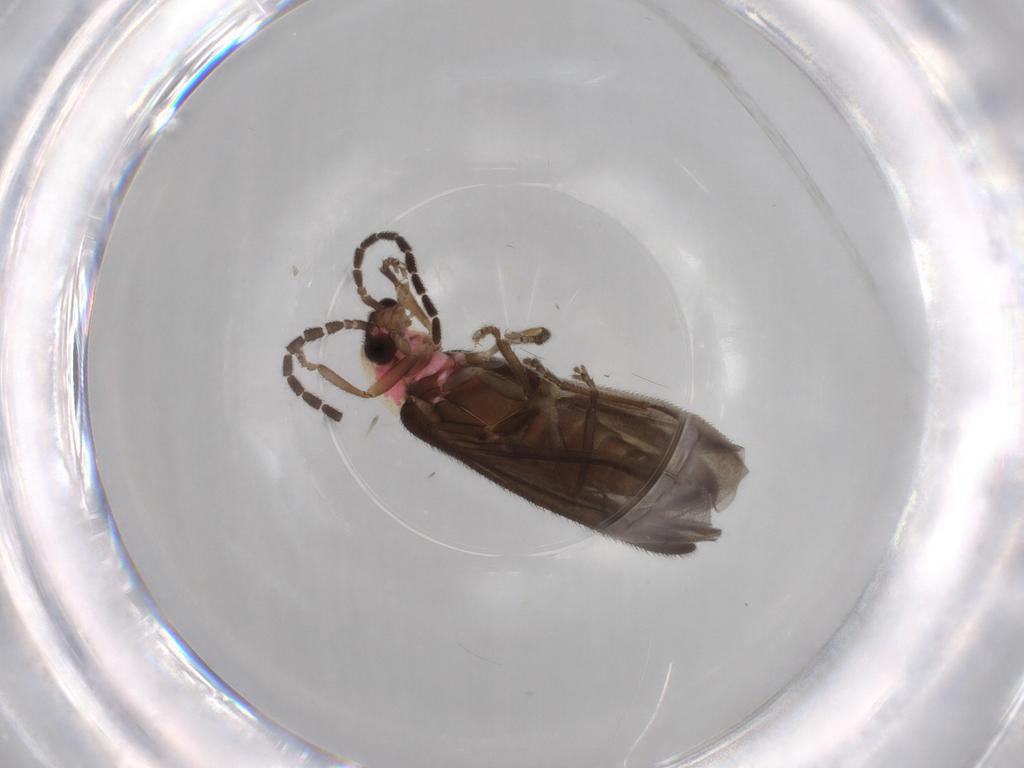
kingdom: Animalia
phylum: Arthropoda
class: Insecta
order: Coleoptera
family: Lampyridae
